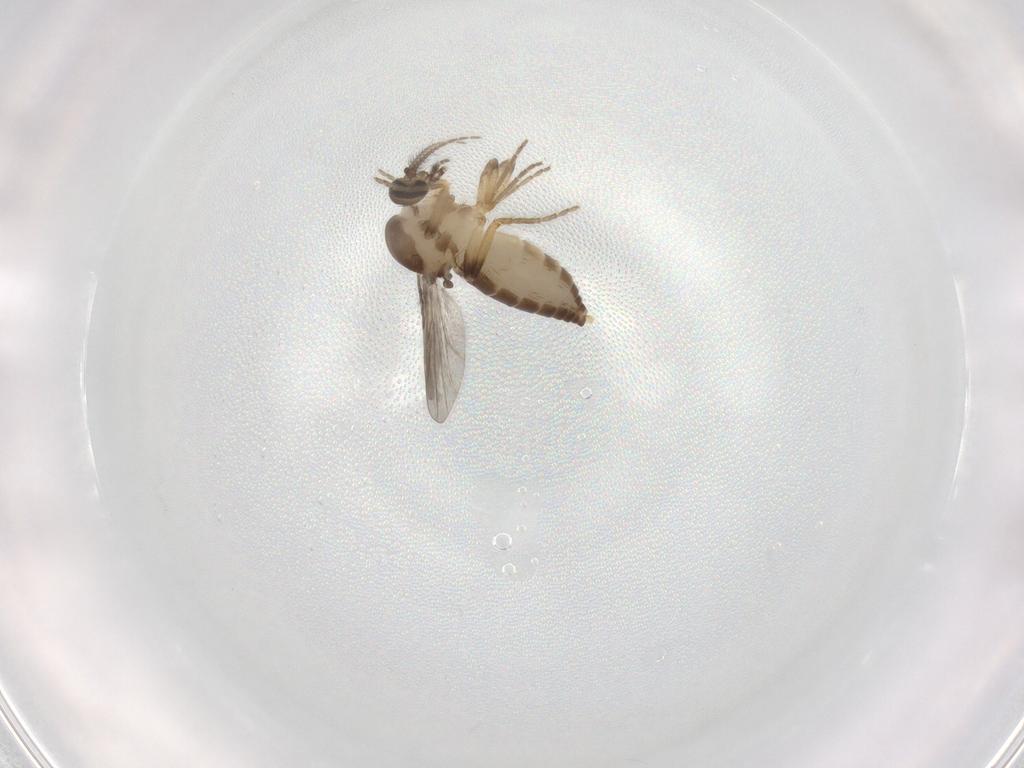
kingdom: Animalia
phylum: Arthropoda
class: Insecta
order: Diptera
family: Ceratopogonidae
